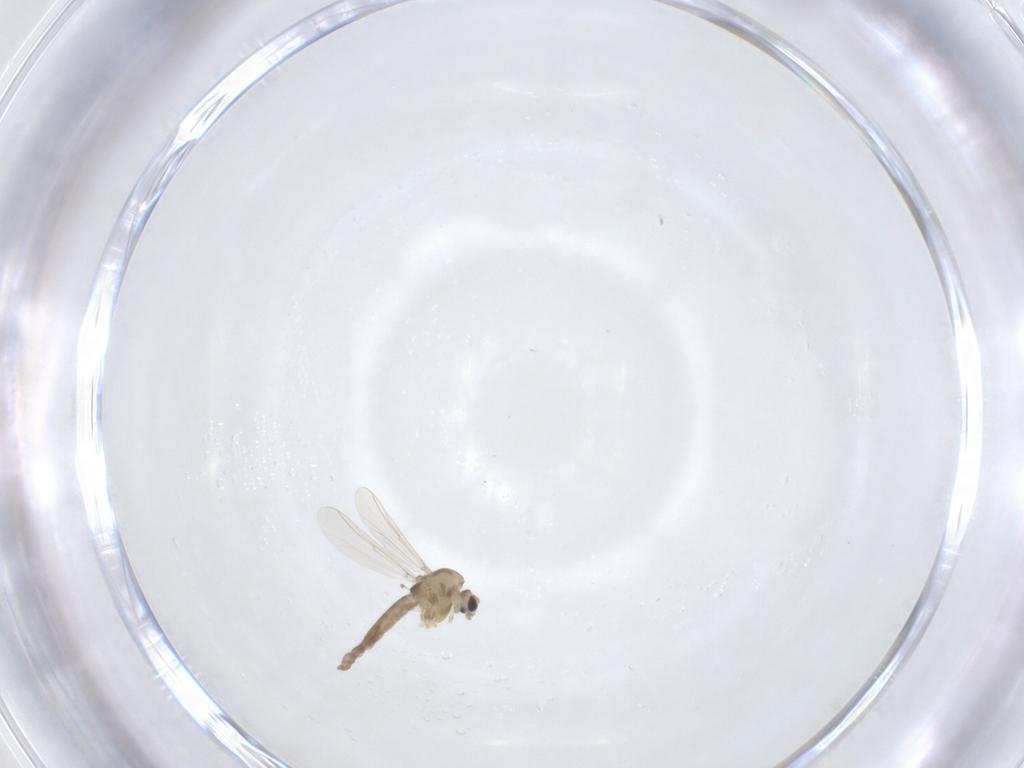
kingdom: Animalia
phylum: Arthropoda
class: Insecta
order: Diptera
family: Chironomidae
